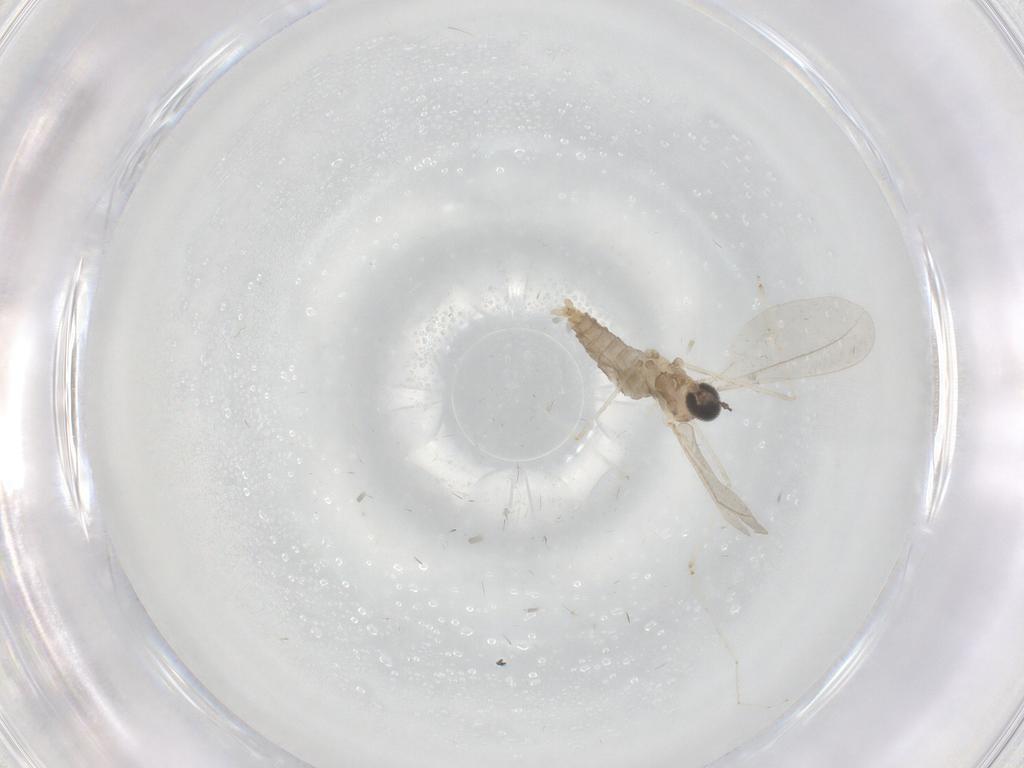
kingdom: Animalia
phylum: Arthropoda
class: Insecta
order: Diptera
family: Cecidomyiidae
